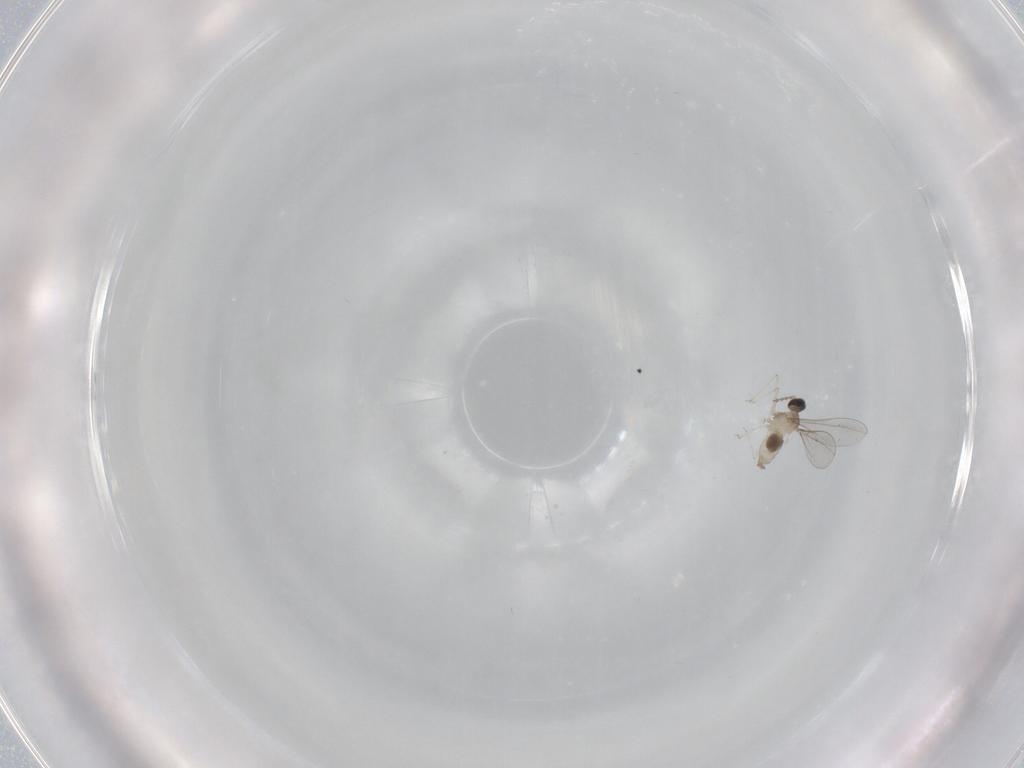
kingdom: Animalia
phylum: Arthropoda
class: Insecta
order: Diptera
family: Cecidomyiidae
